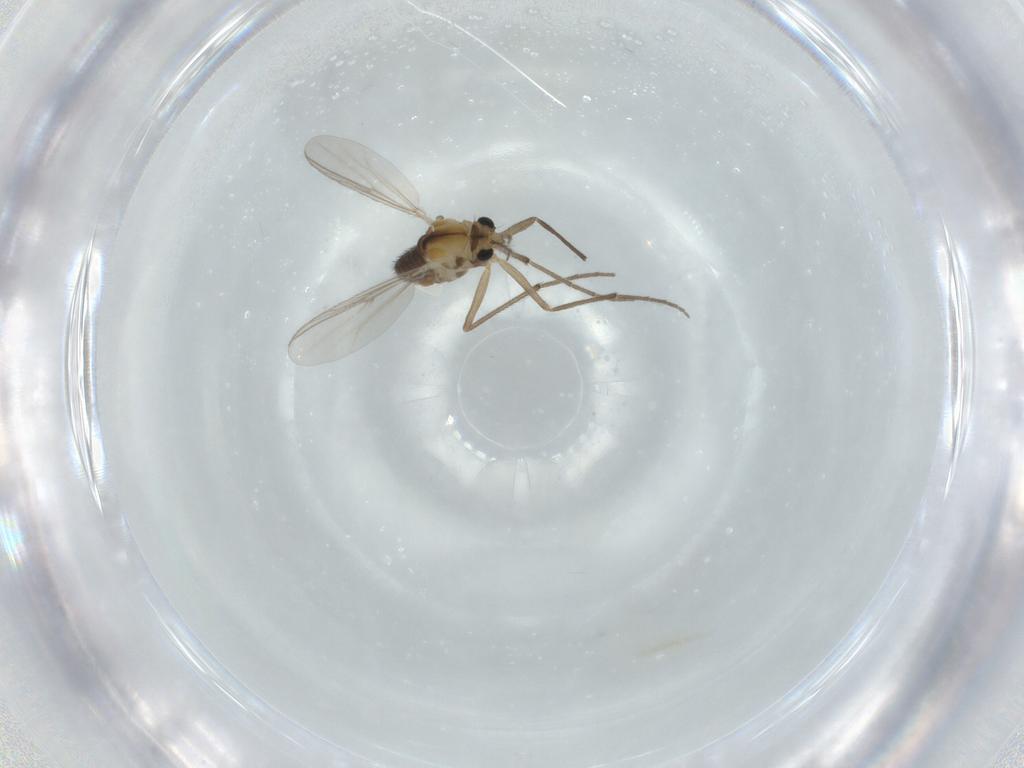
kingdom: Animalia
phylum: Arthropoda
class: Insecta
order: Diptera
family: Chironomidae
